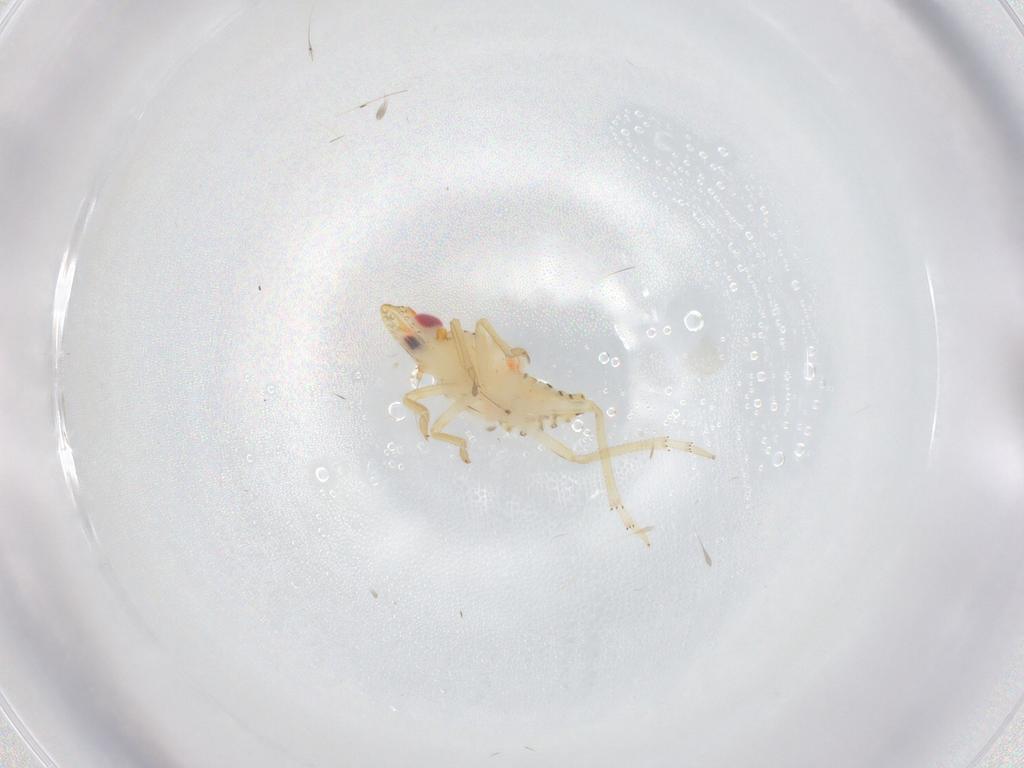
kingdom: Animalia
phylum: Arthropoda
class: Insecta
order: Hemiptera
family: Tropiduchidae
